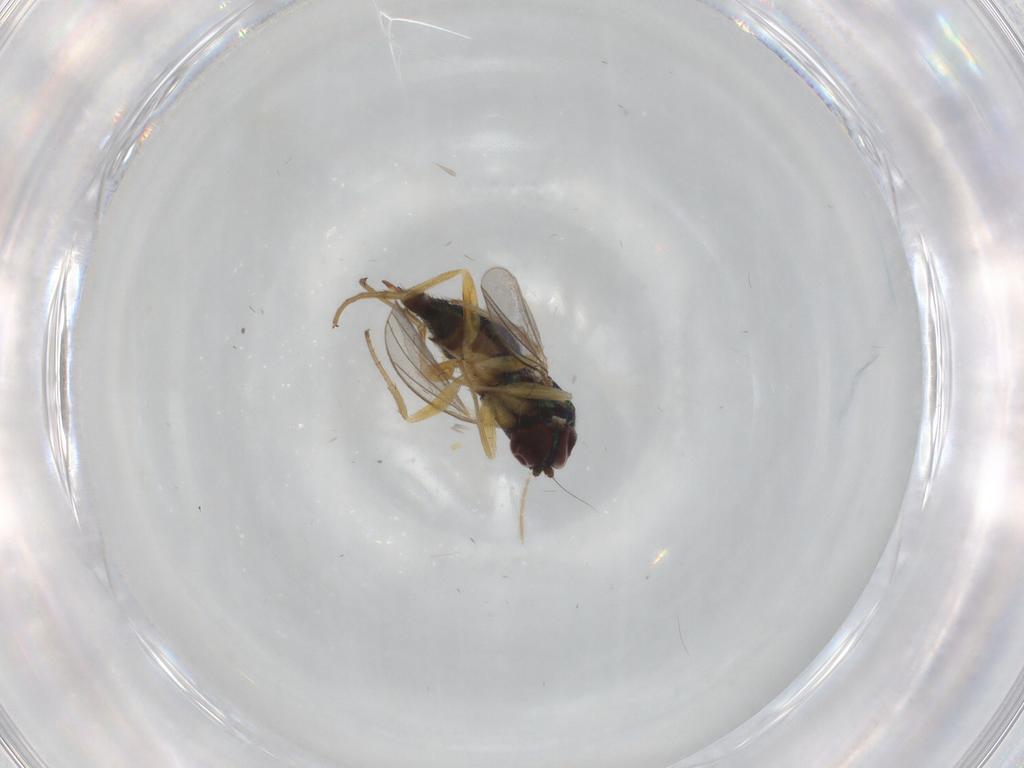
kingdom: Animalia
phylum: Arthropoda
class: Insecta
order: Diptera
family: Dolichopodidae
